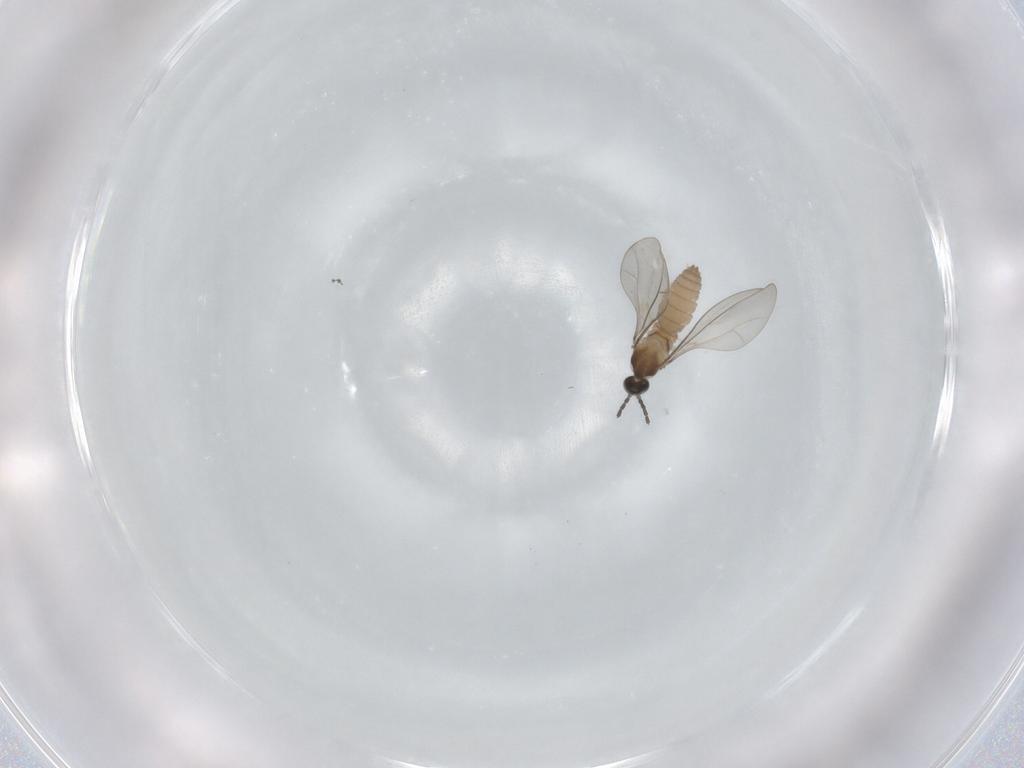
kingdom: Animalia
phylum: Arthropoda
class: Insecta
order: Diptera
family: Cecidomyiidae
